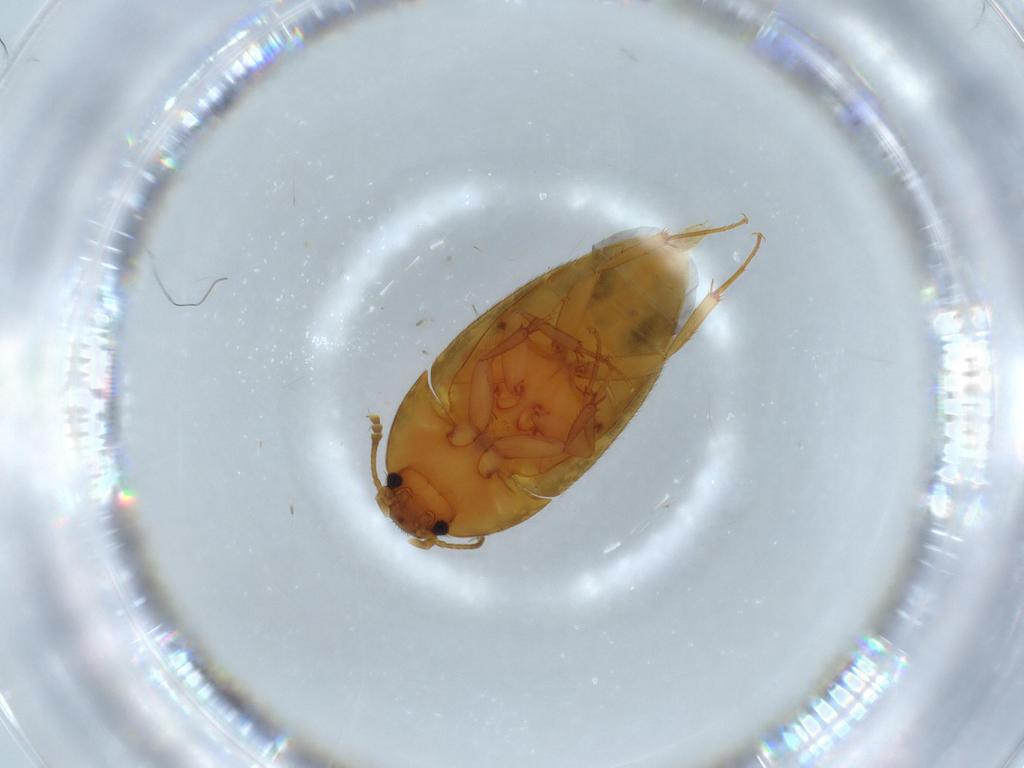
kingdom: Animalia
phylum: Arthropoda
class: Insecta
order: Coleoptera
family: Mycetophagidae
